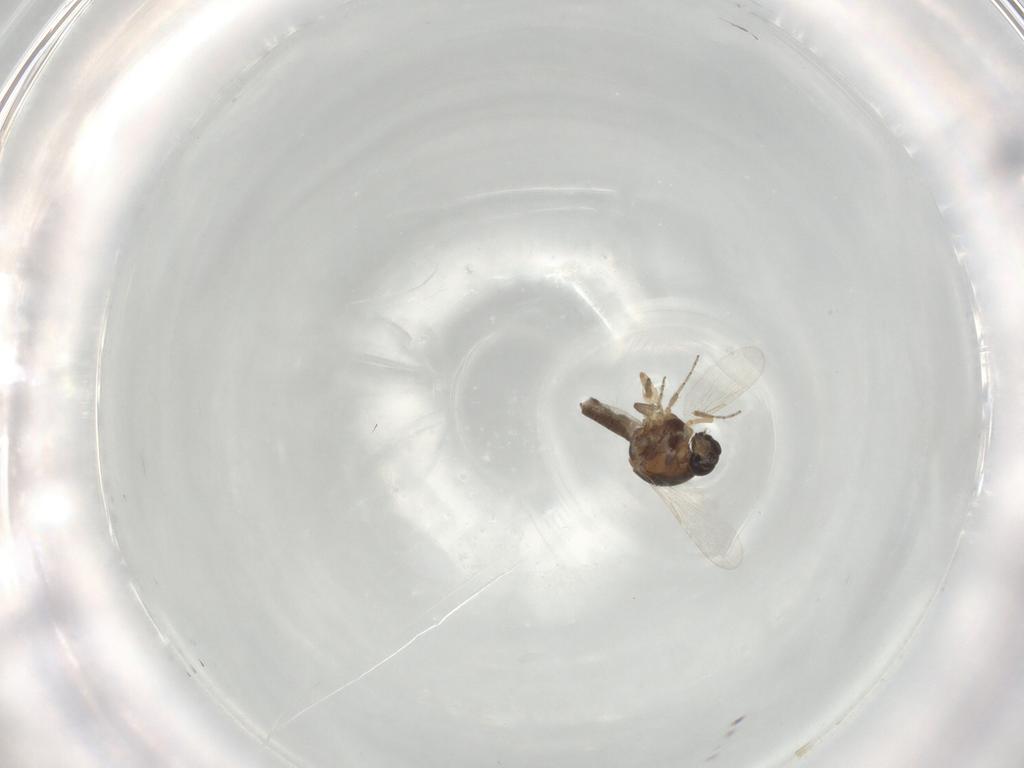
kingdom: Animalia
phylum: Arthropoda
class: Insecta
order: Diptera
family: Ceratopogonidae
